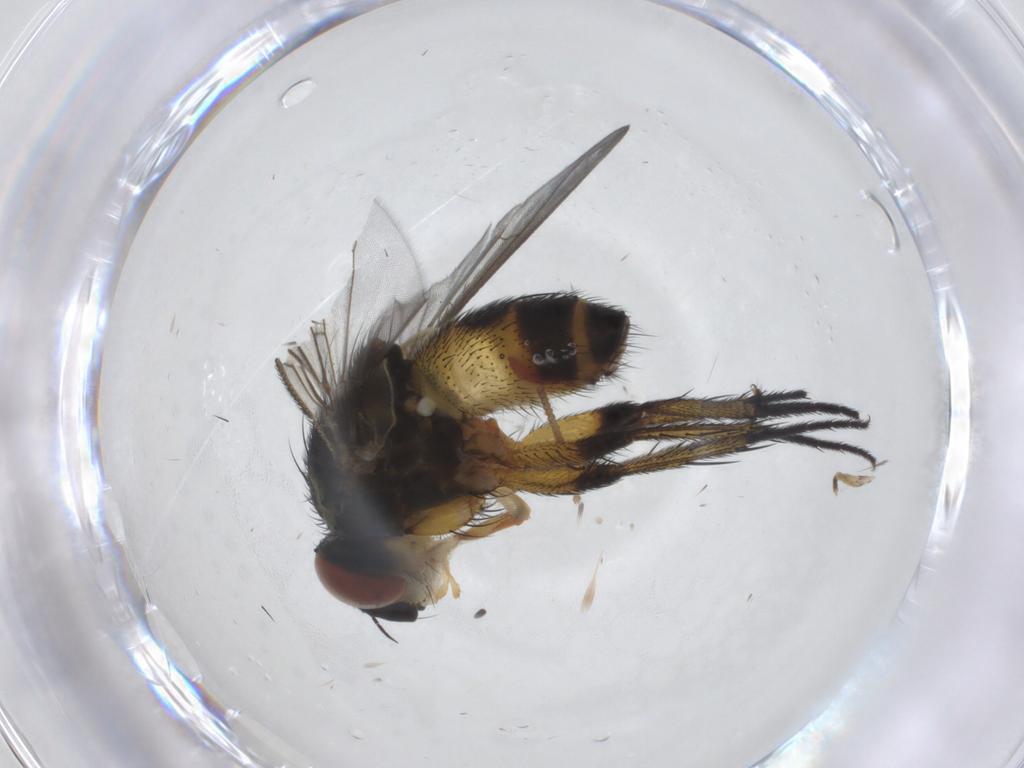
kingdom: Animalia
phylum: Arthropoda
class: Insecta
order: Diptera
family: Tachinidae
